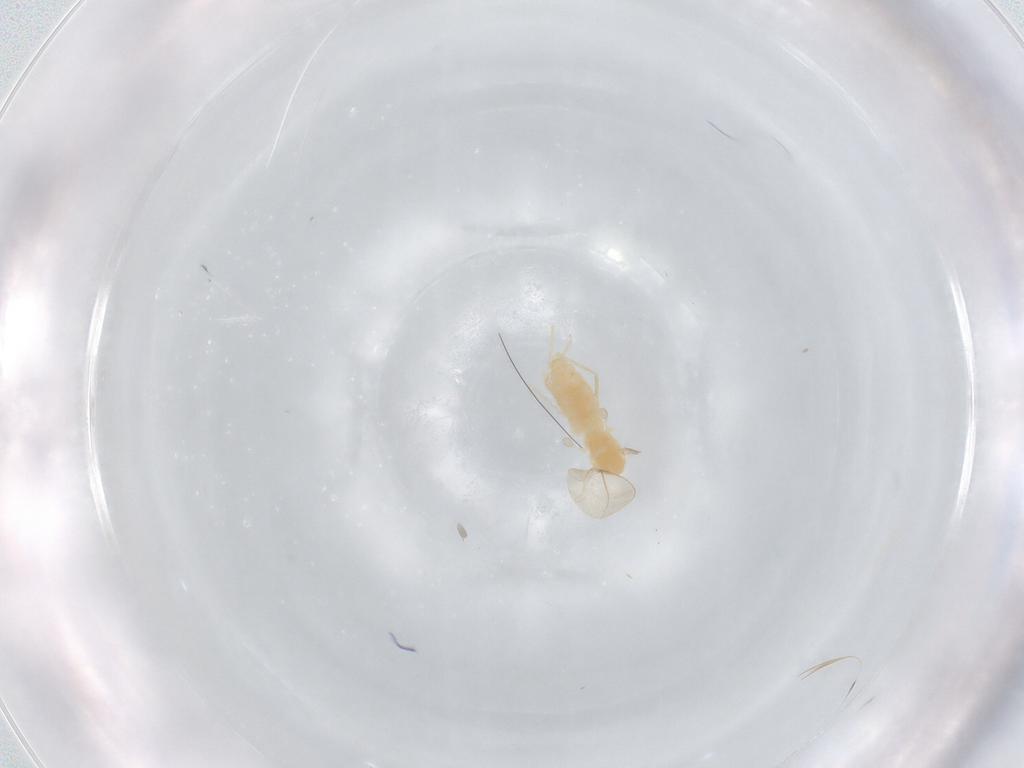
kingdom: Animalia
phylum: Arthropoda
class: Insecta
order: Diptera
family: Cecidomyiidae
